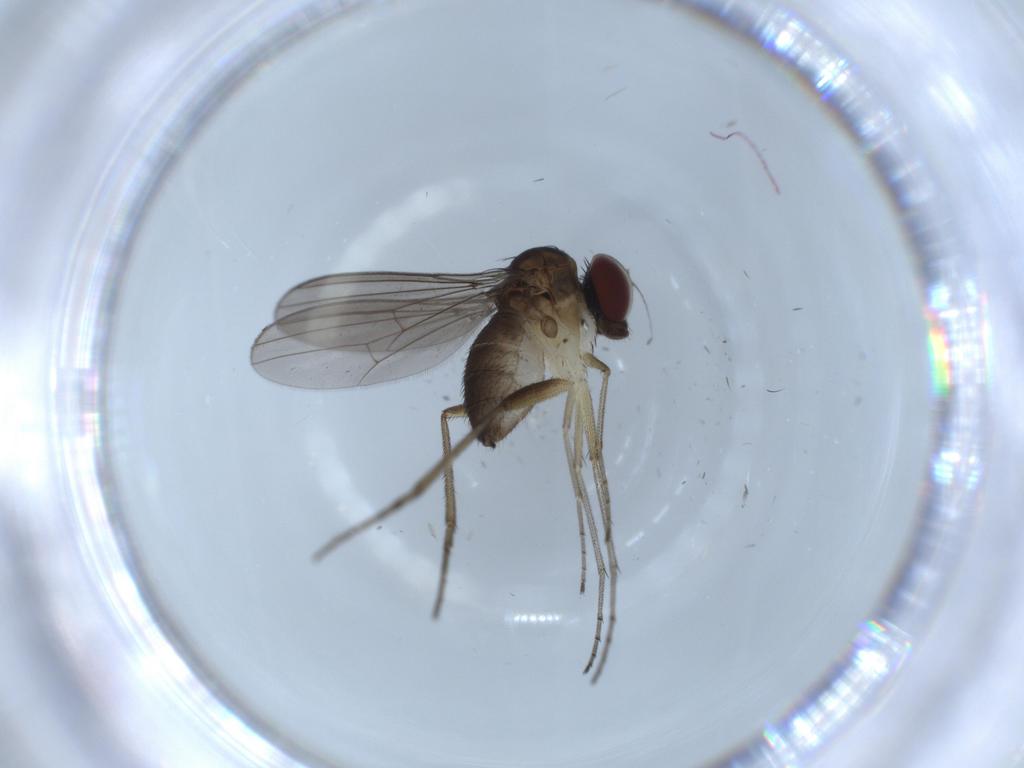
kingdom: Animalia
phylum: Arthropoda
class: Insecta
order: Diptera
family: Dolichopodidae
